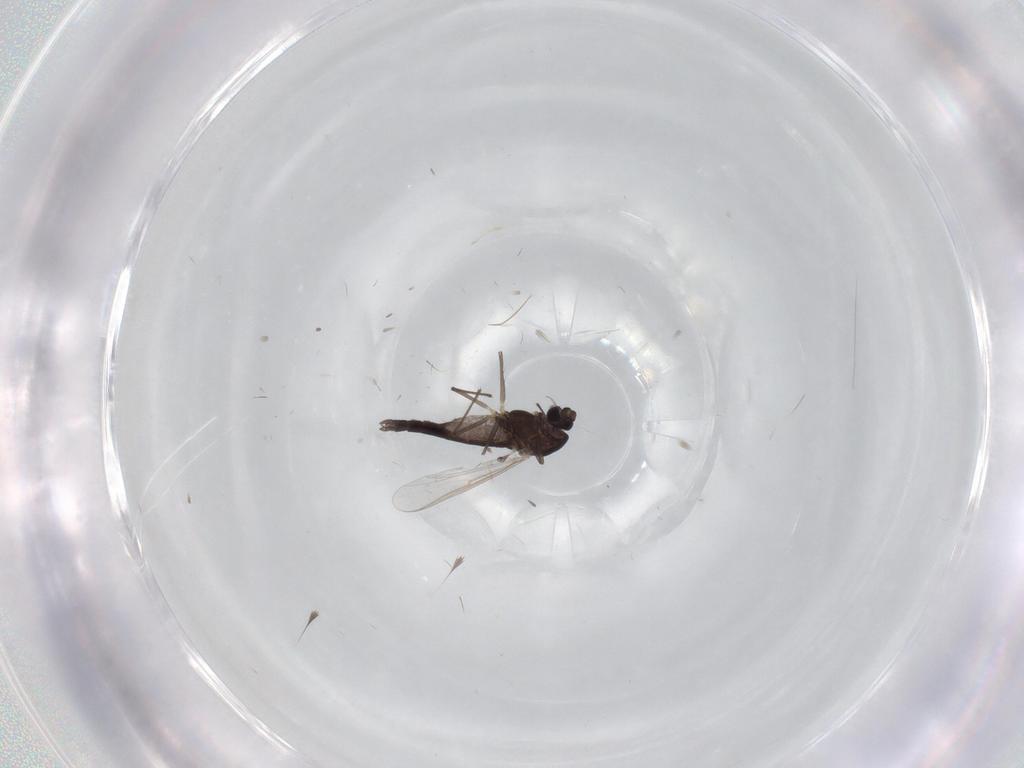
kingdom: Animalia
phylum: Arthropoda
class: Insecta
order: Diptera
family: Chironomidae
